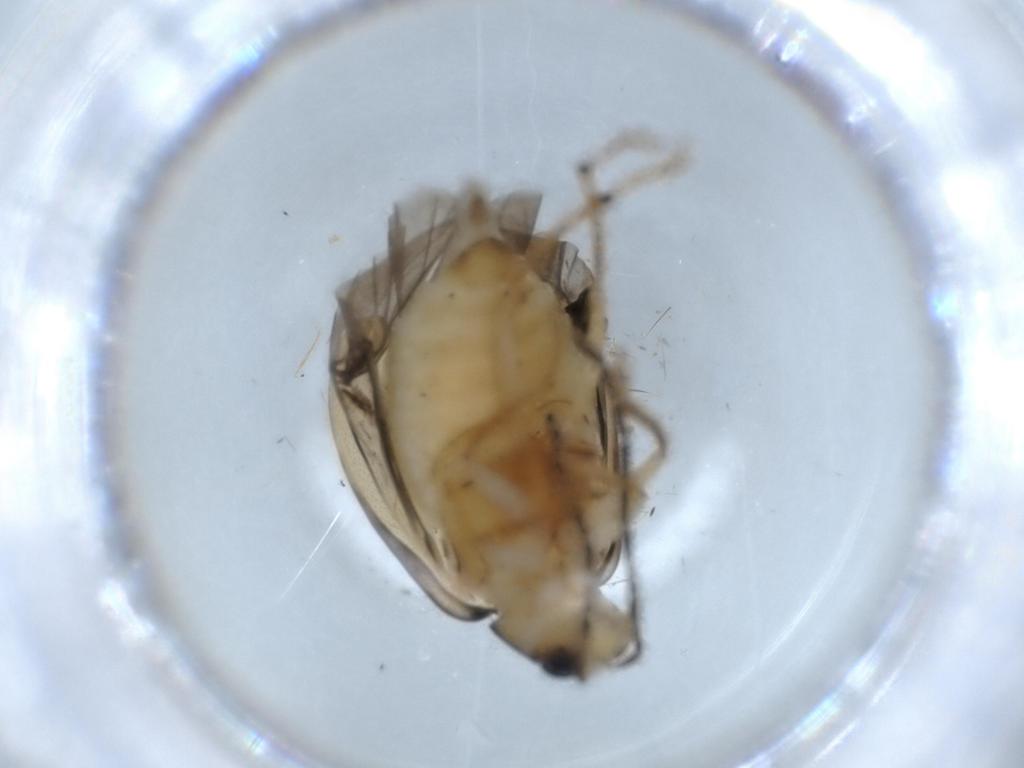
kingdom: Animalia
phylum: Arthropoda
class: Insecta
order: Coleoptera
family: Chrysomelidae
